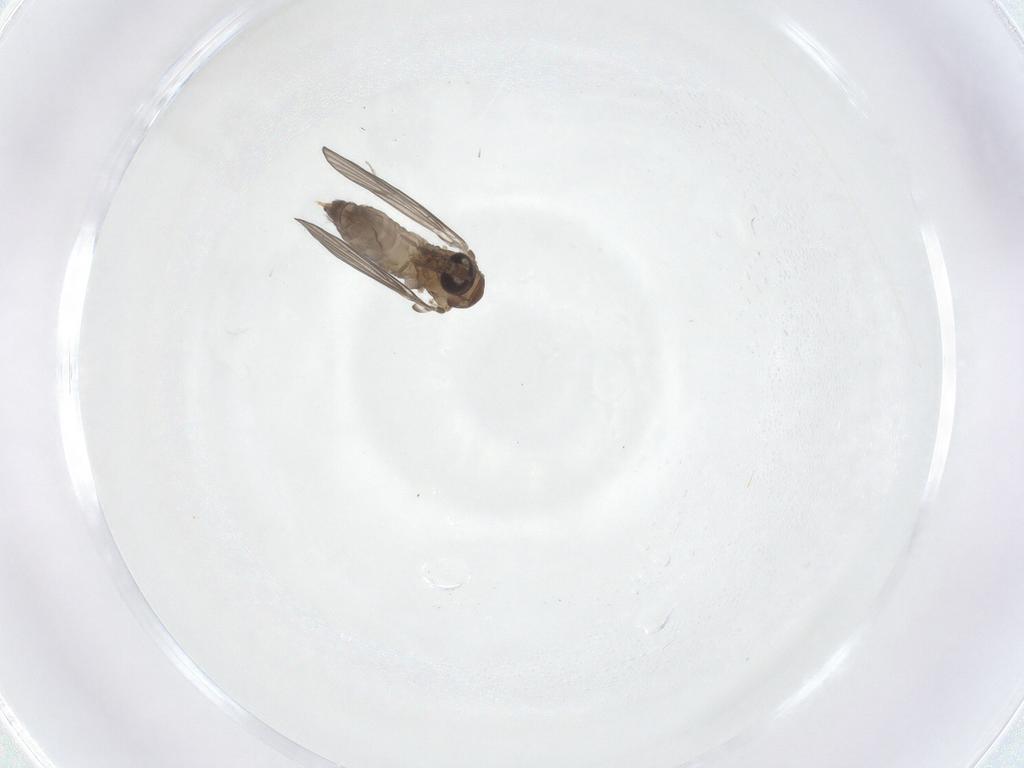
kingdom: Animalia
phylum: Arthropoda
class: Insecta
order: Diptera
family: Psychodidae
